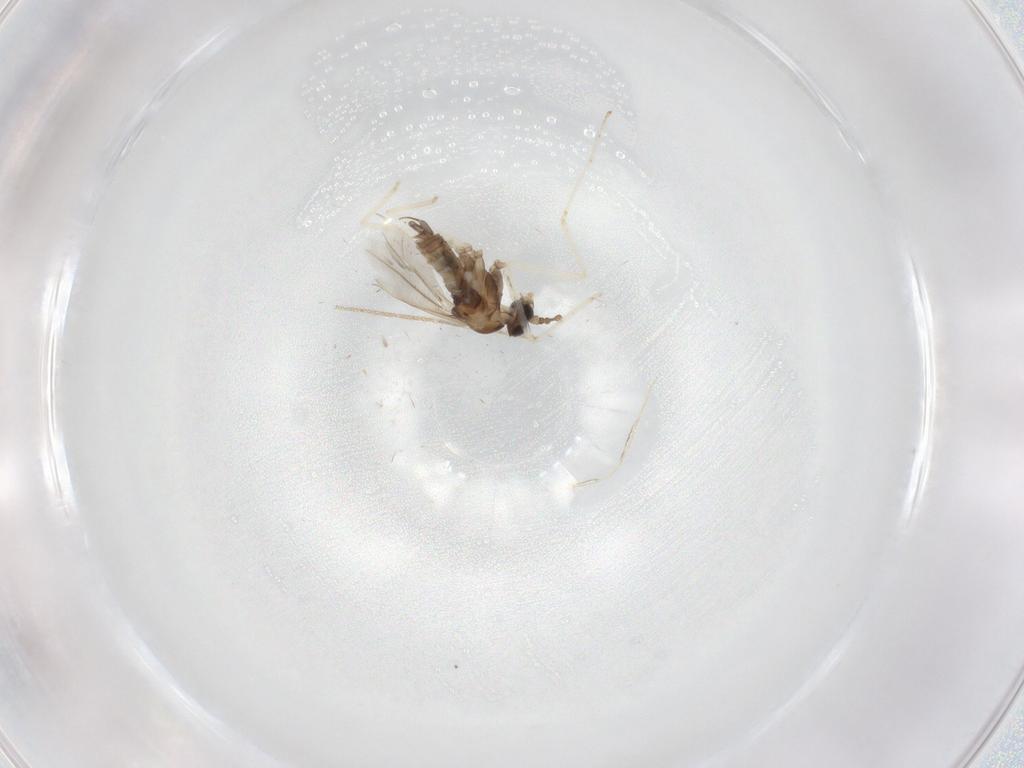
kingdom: Animalia
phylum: Arthropoda
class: Insecta
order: Diptera
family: Cecidomyiidae
